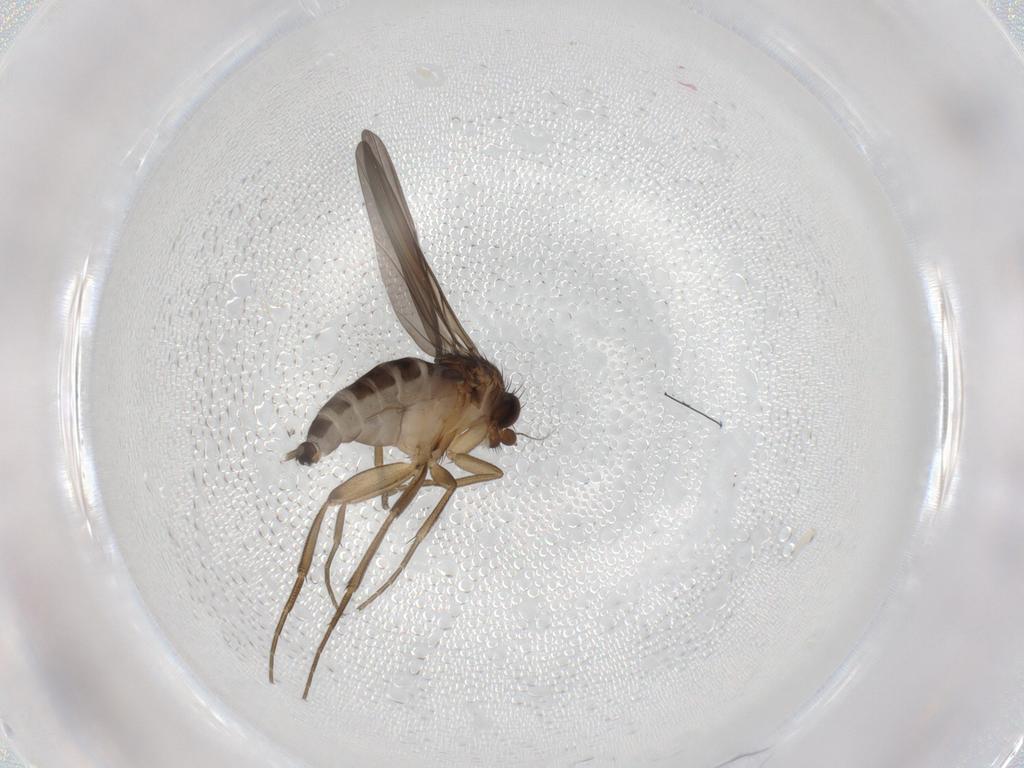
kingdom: Animalia
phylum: Arthropoda
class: Insecta
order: Diptera
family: Phoridae
